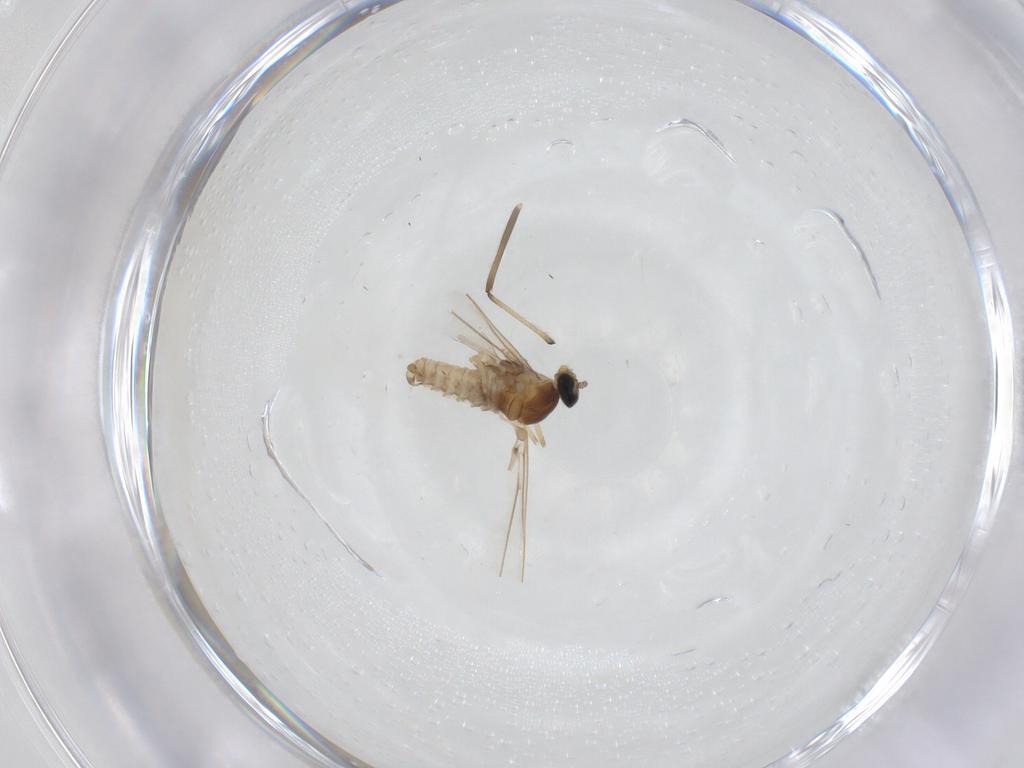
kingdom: Animalia
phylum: Arthropoda
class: Insecta
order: Diptera
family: Cecidomyiidae
